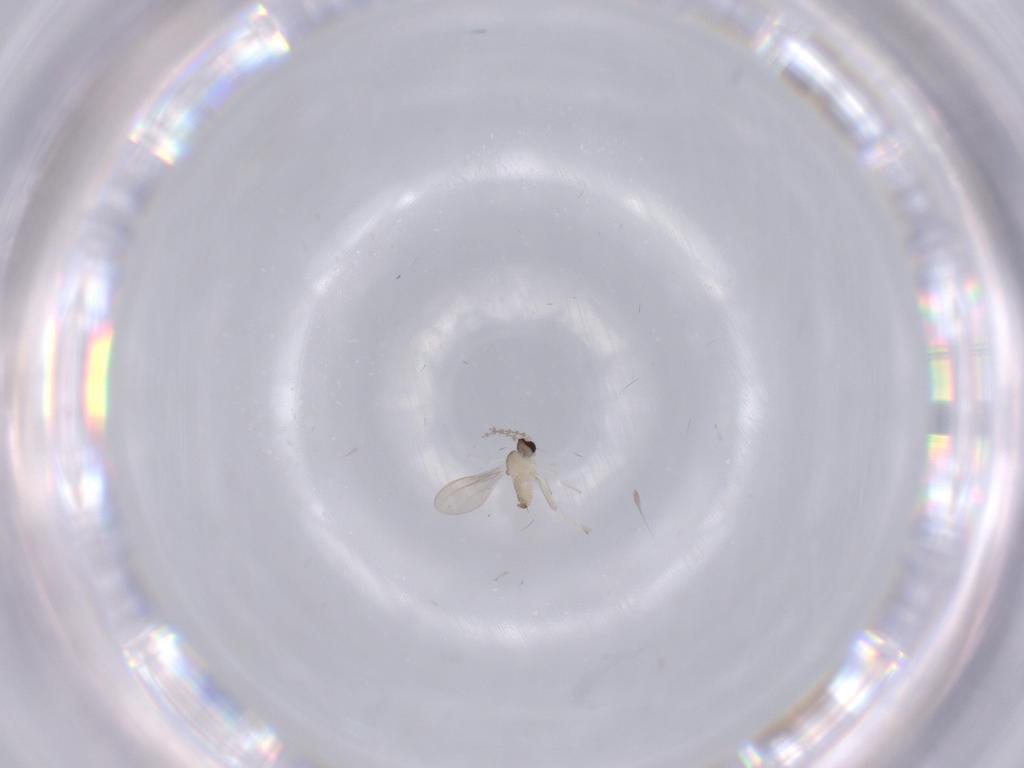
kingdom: Animalia
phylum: Arthropoda
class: Insecta
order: Diptera
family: Cecidomyiidae
